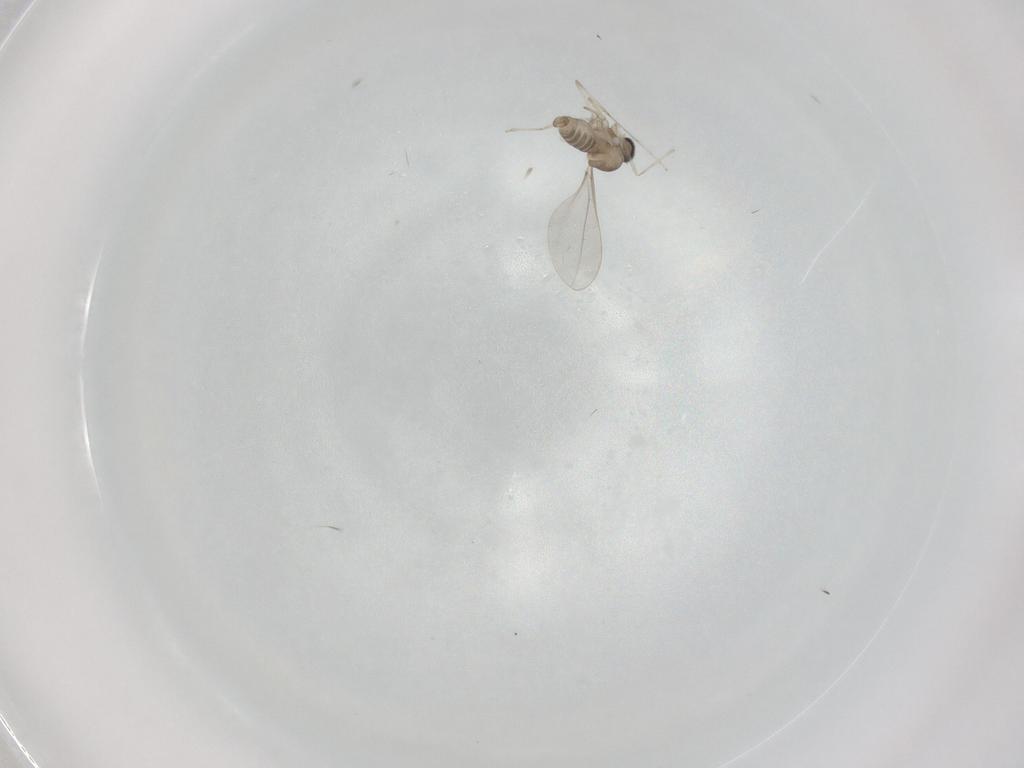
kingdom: Animalia
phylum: Arthropoda
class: Insecta
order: Diptera
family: Cecidomyiidae
